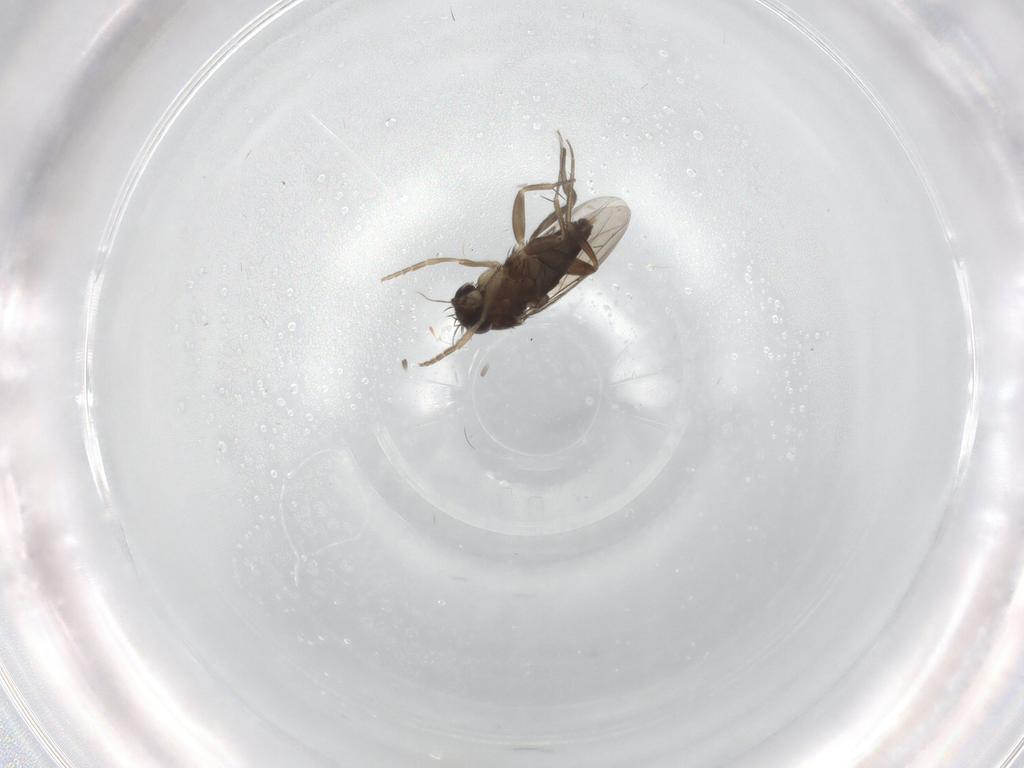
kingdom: Animalia
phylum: Arthropoda
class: Insecta
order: Diptera
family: Phoridae
